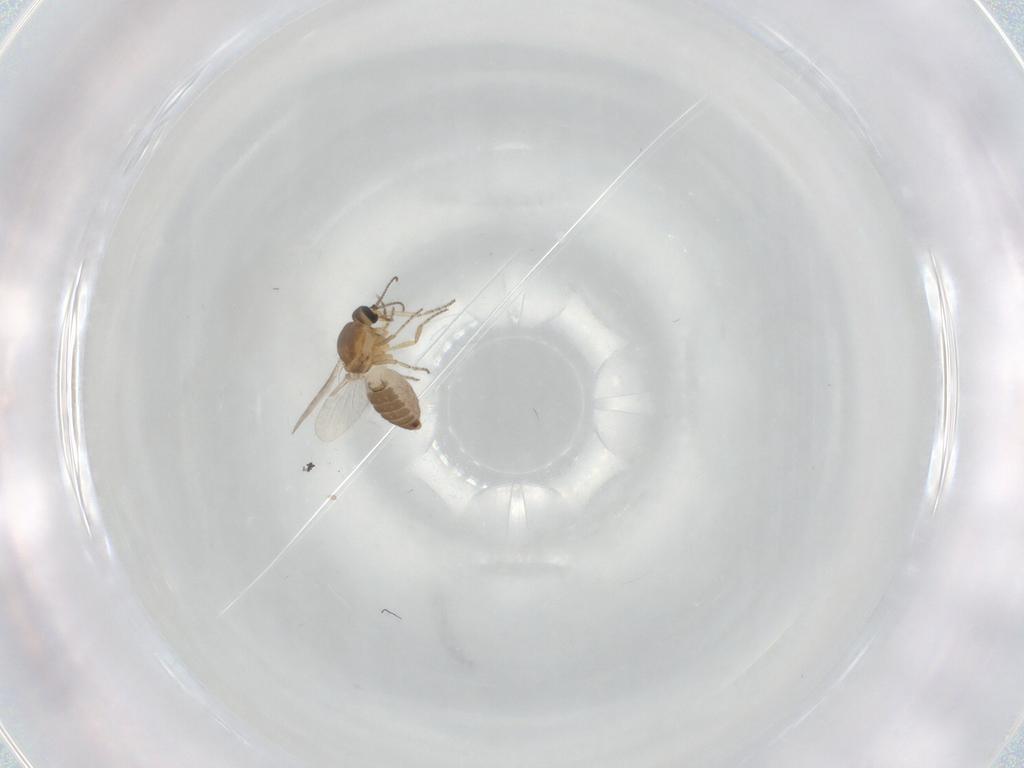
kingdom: Animalia
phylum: Arthropoda
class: Insecta
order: Diptera
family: Ceratopogonidae
